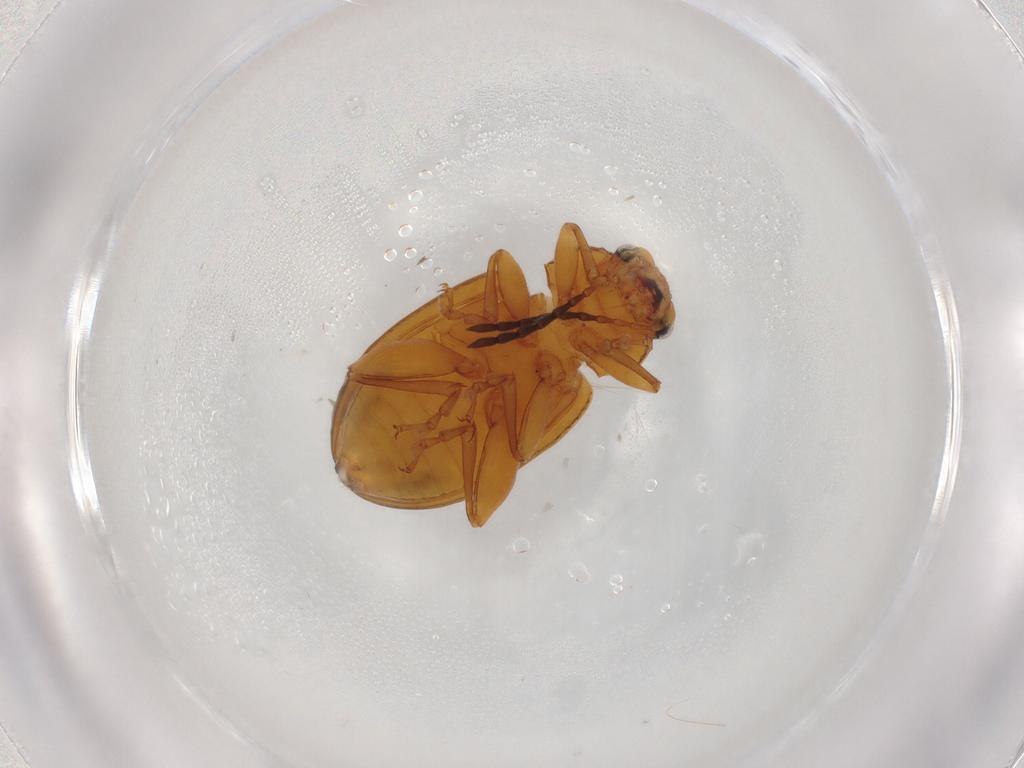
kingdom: Animalia
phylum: Arthropoda
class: Insecta
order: Coleoptera
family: Chrysomelidae
